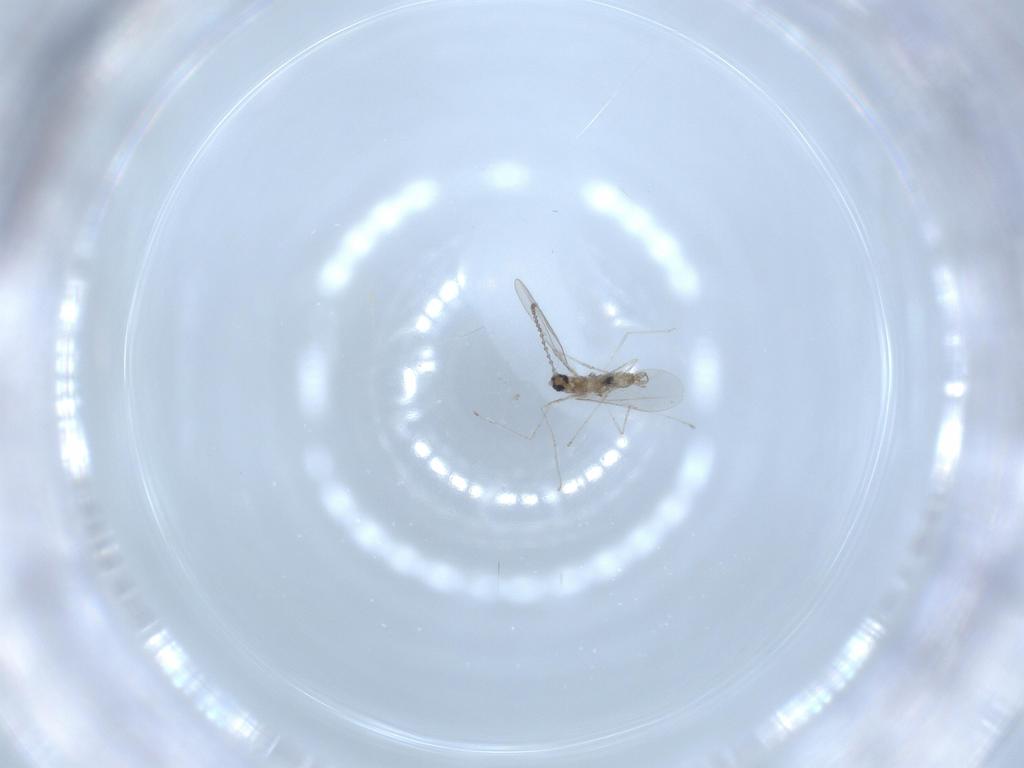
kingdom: Animalia
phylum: Arthropoda
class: Insecta
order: Diptera
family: Cecidomyiidae
